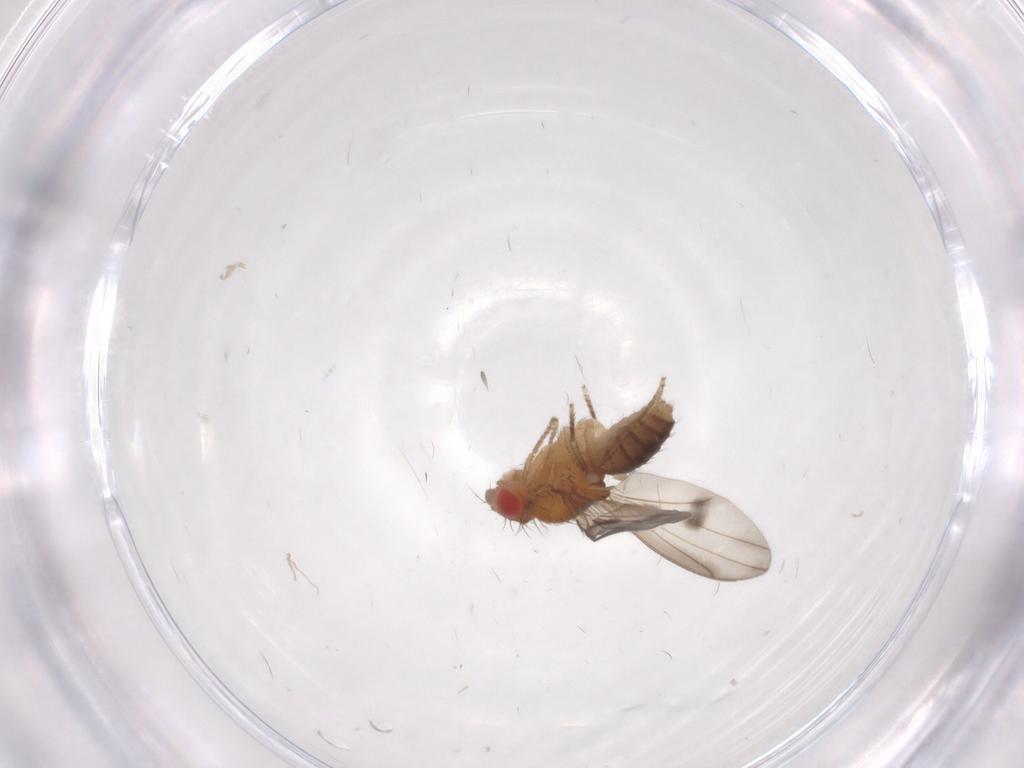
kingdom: Animalia
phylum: Arthropoda
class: Insecta
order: Diptera
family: Drosophilidae
